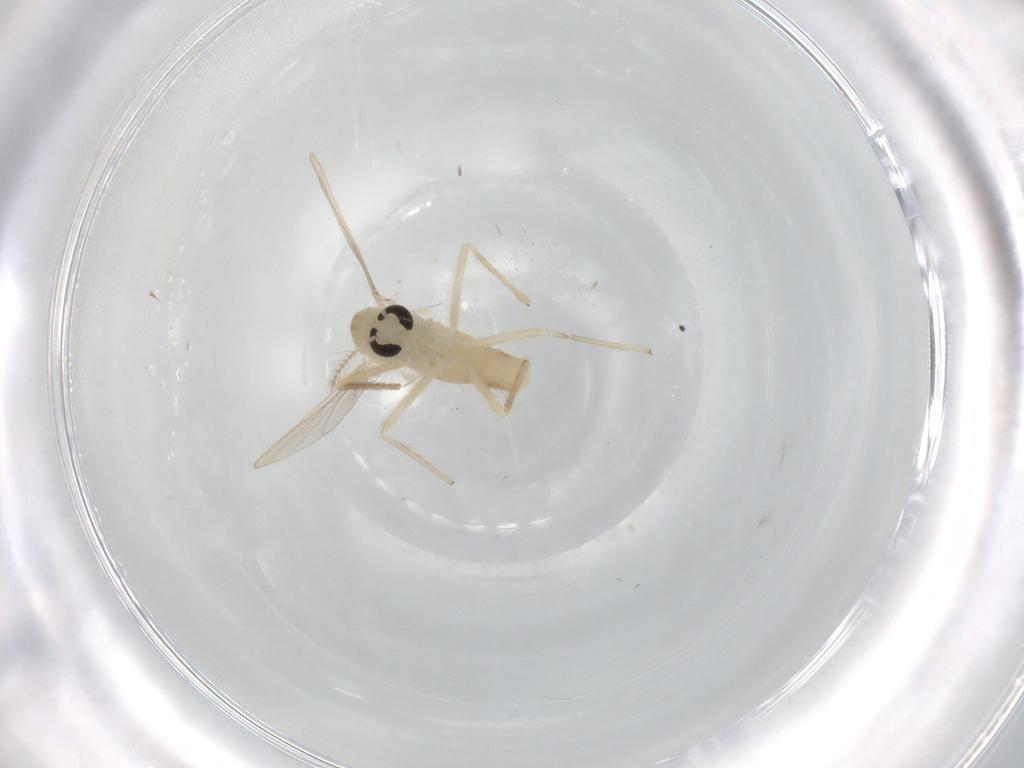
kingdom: Animalia
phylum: Arthropoda
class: Insecta
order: Diptera
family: Chironomidae
